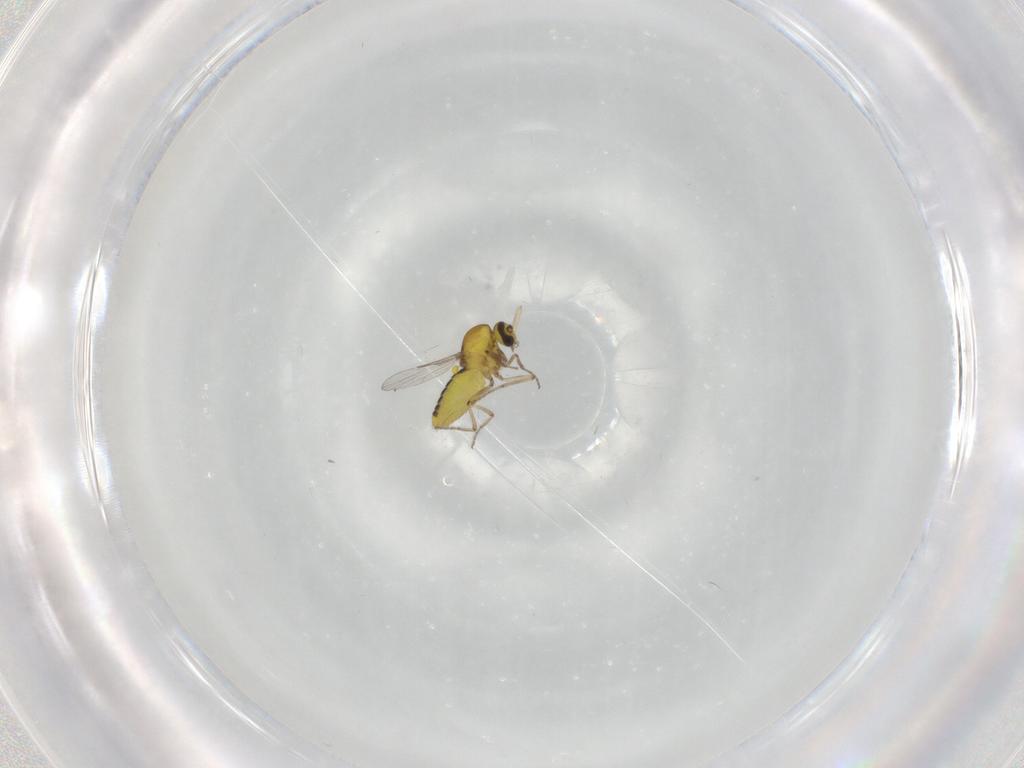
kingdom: Animalia
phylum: Arthropoda
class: Insecta
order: Diptera
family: Ceratopogonidae
